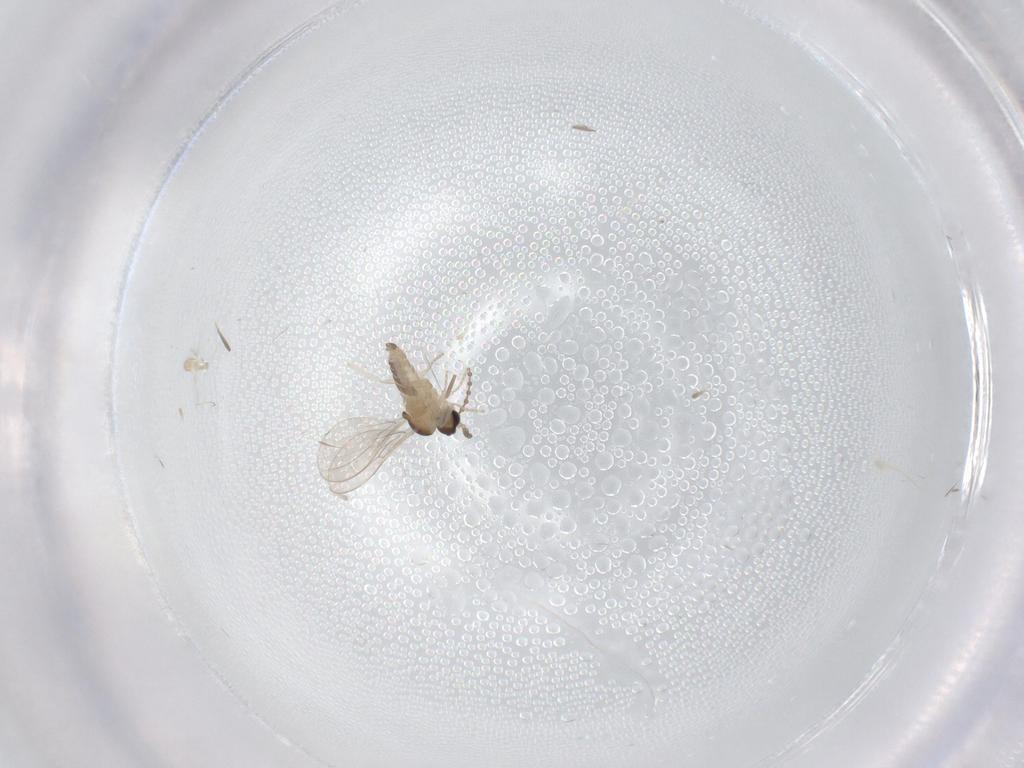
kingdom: Animalia
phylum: Arthropoda
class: Insecta
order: Diptera
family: Cecidomyiidae
